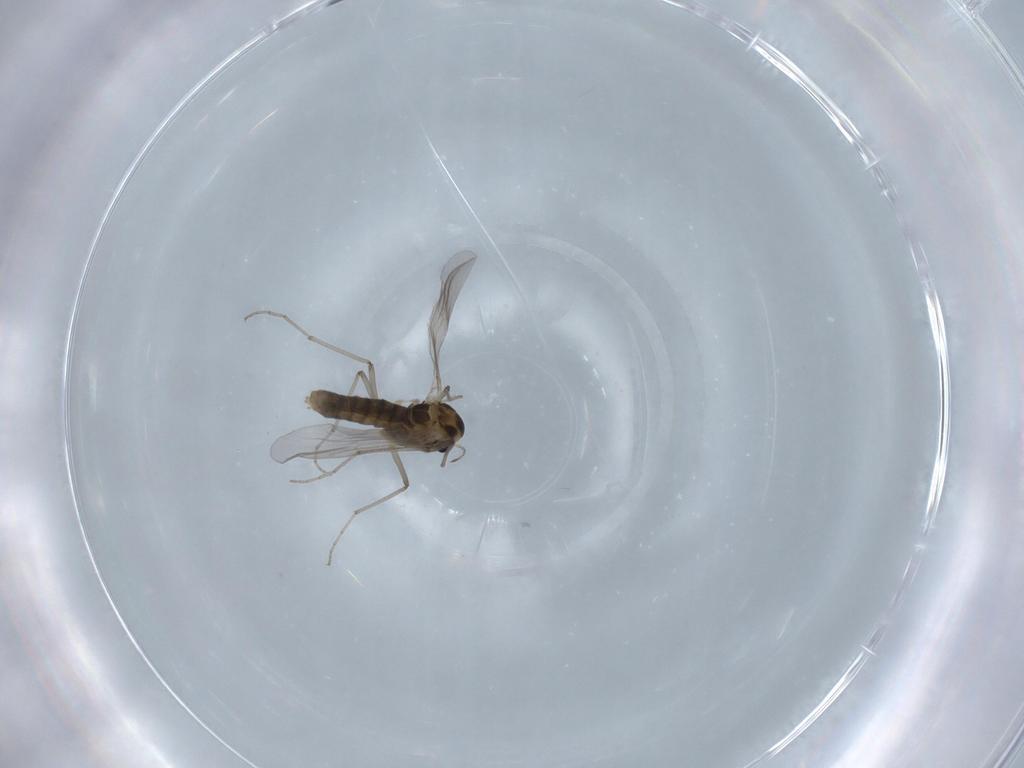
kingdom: Animalia
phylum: Arthropoda
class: Insecta
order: Diptera
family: Chironomidae
